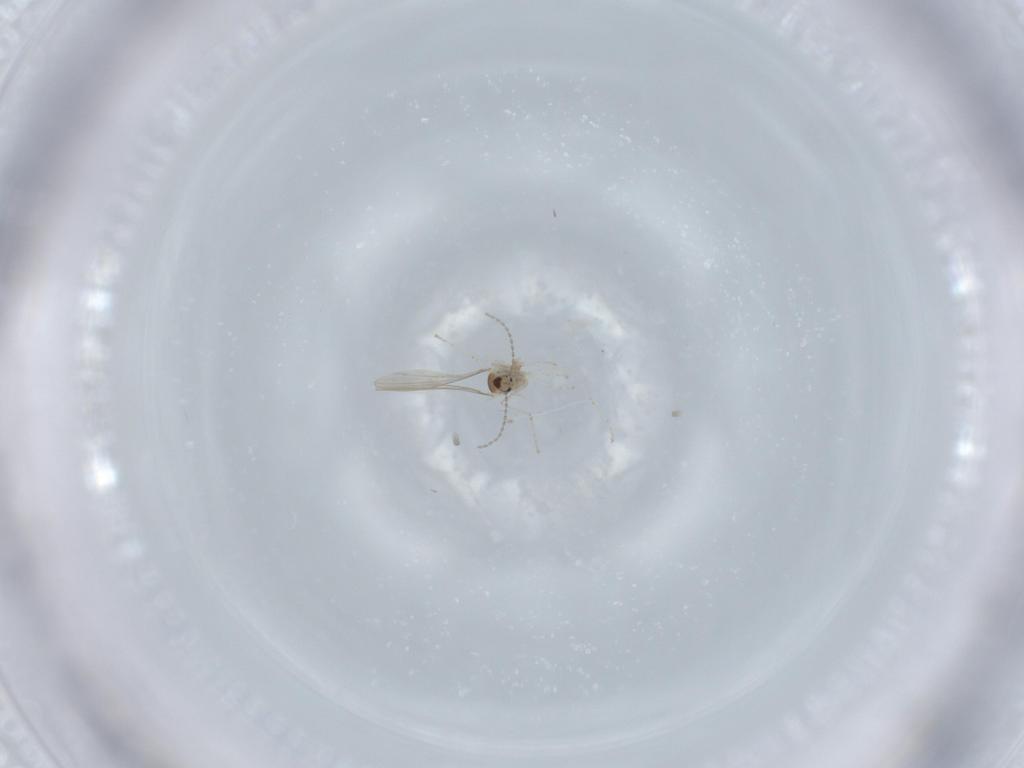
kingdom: Animalia
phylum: Arthropoda
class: Insecta
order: Diptera
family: Cecidomyiidae
